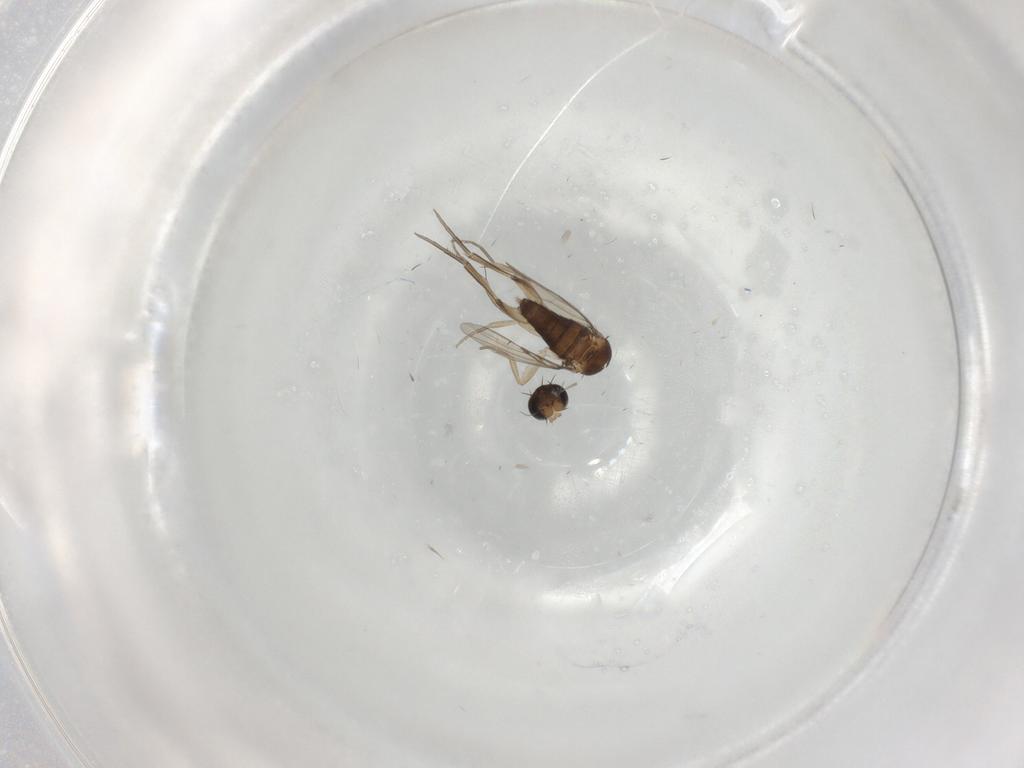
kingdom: Animalia
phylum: Arthropoda
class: Insecta
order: Diptera
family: Phoridae
